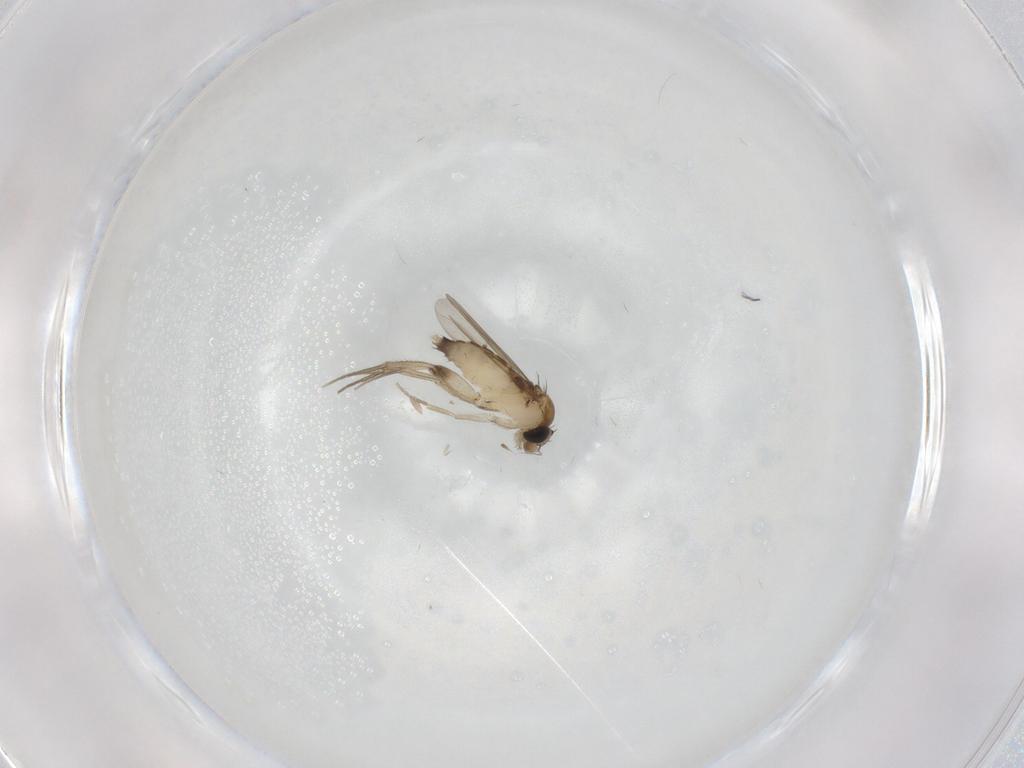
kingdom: Animalia
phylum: Arthropoda
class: Insecta
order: Diptera
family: Phoridae
